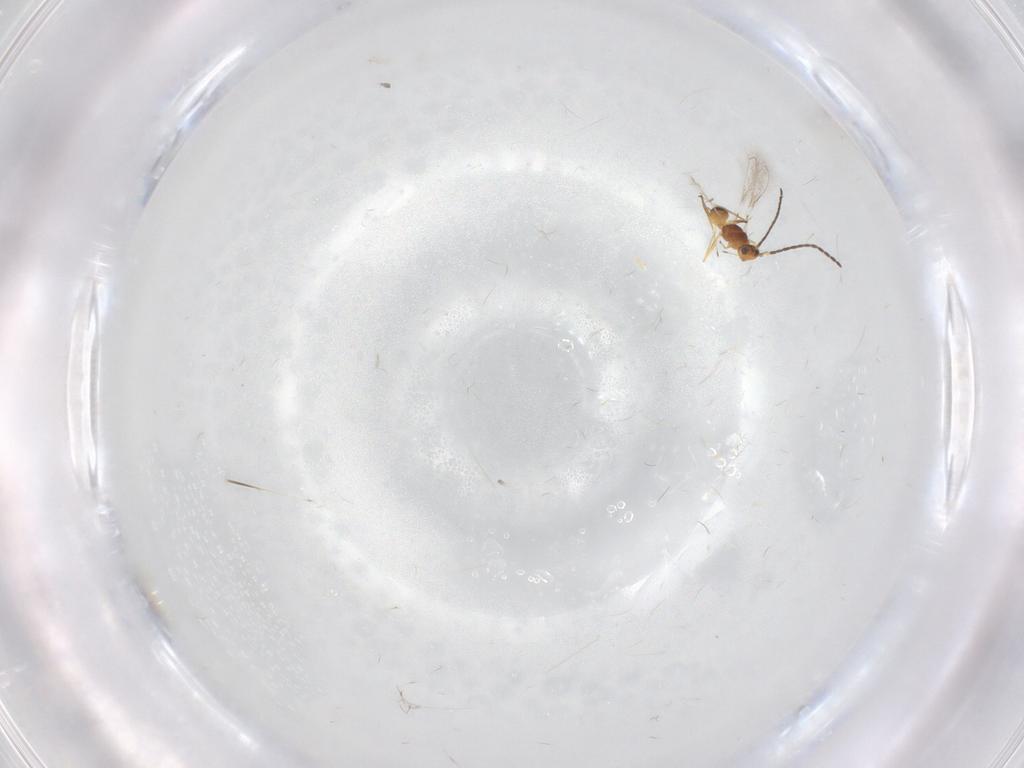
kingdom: Animalia
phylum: Arthropoda
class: Insecta
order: Hymenoptera
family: Mymaridae
